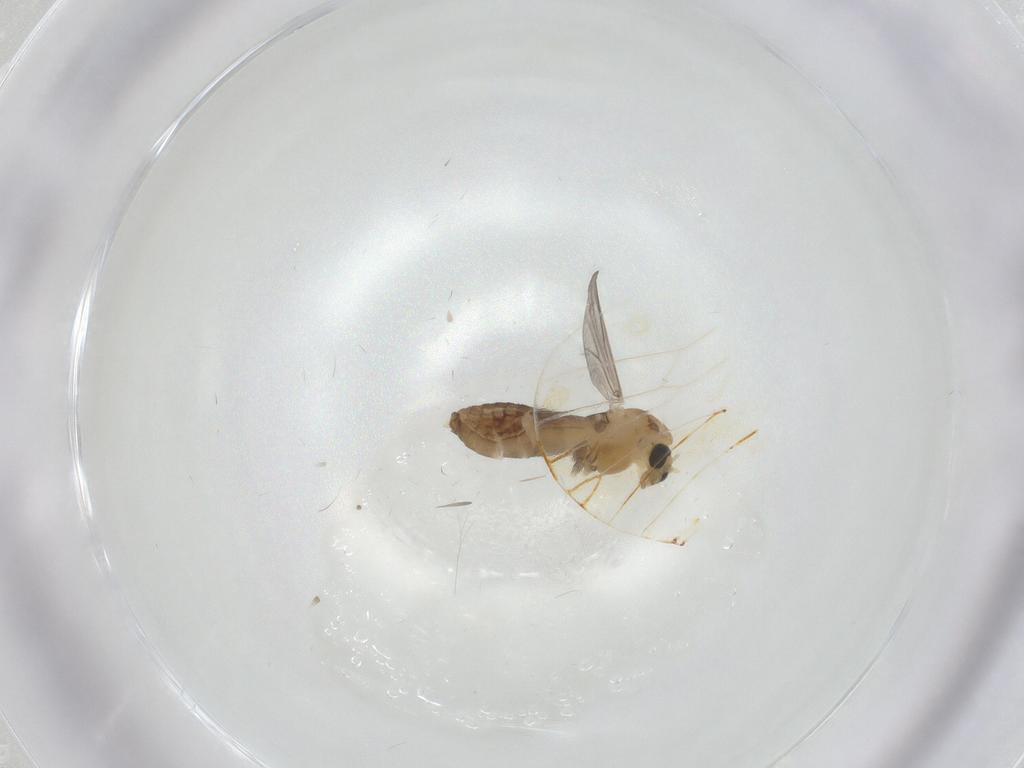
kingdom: Animalia
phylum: Arthropoda
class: Insecta
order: Diptera
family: Chironomidae
